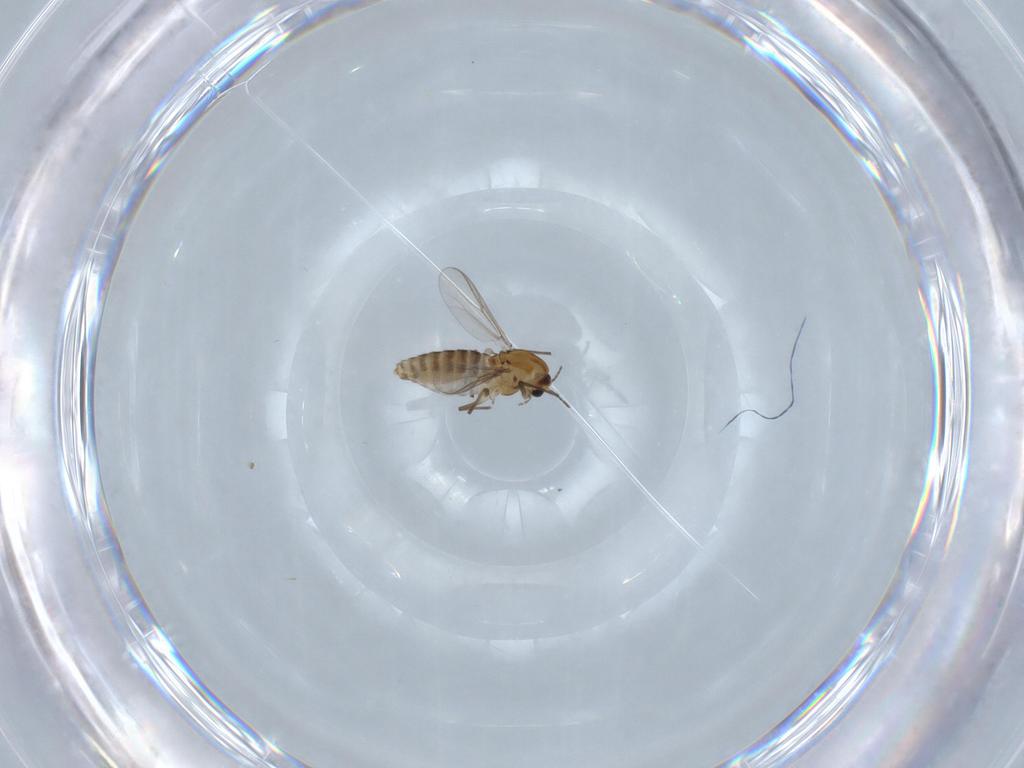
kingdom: Animalia
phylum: Arthropoda
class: Insecta
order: Diptera
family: Chironomidae
